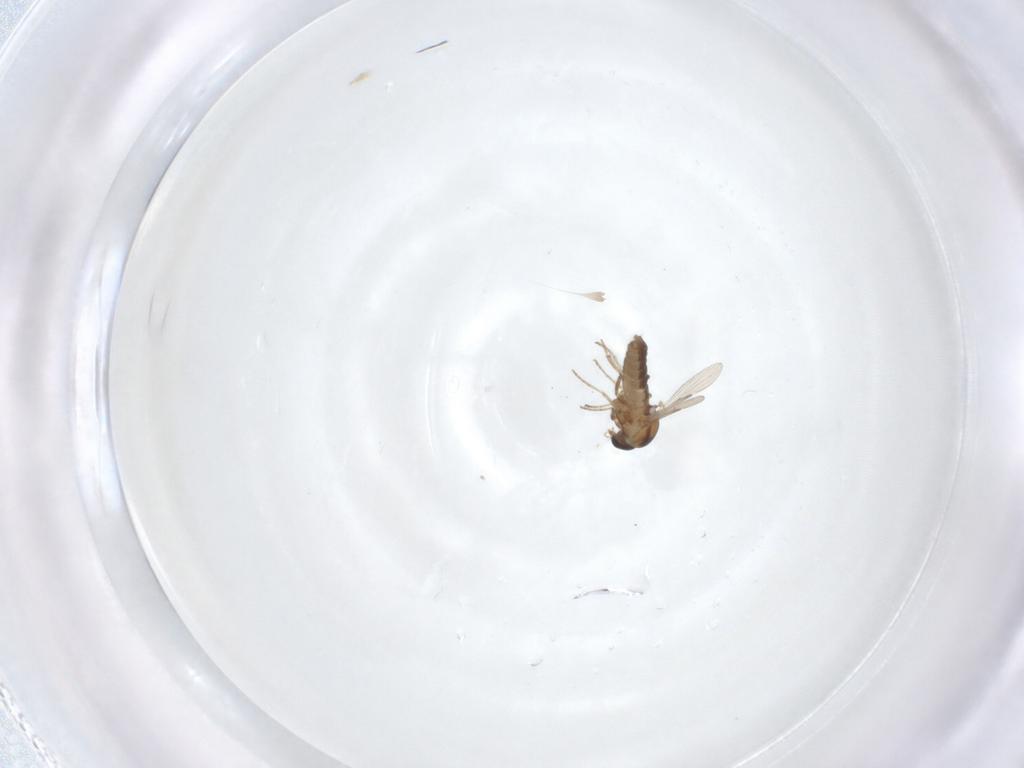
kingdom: Animalia
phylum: Arthropoda
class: Insecta
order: Diptera
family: Ceratopogonidae
